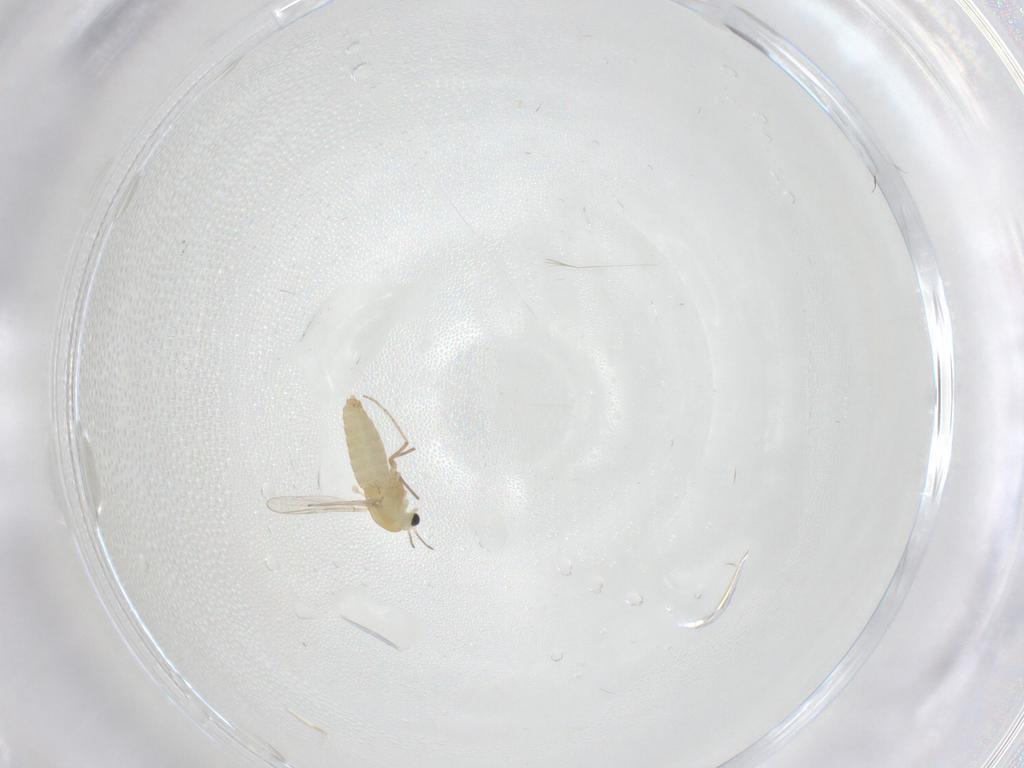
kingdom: Animalia
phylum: Arthropoda
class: Insecta
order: Diptera
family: Chironomidae
